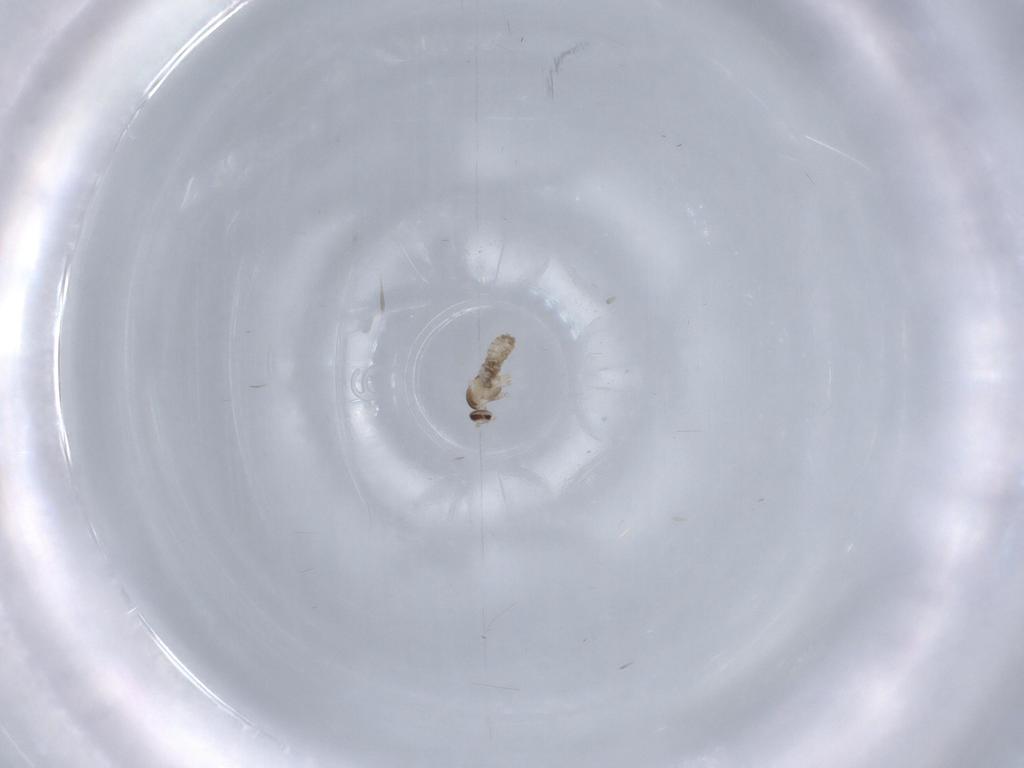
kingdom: Animalia
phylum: Arthropoda
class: Insecta
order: Diptera
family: Cecidomyiidae
